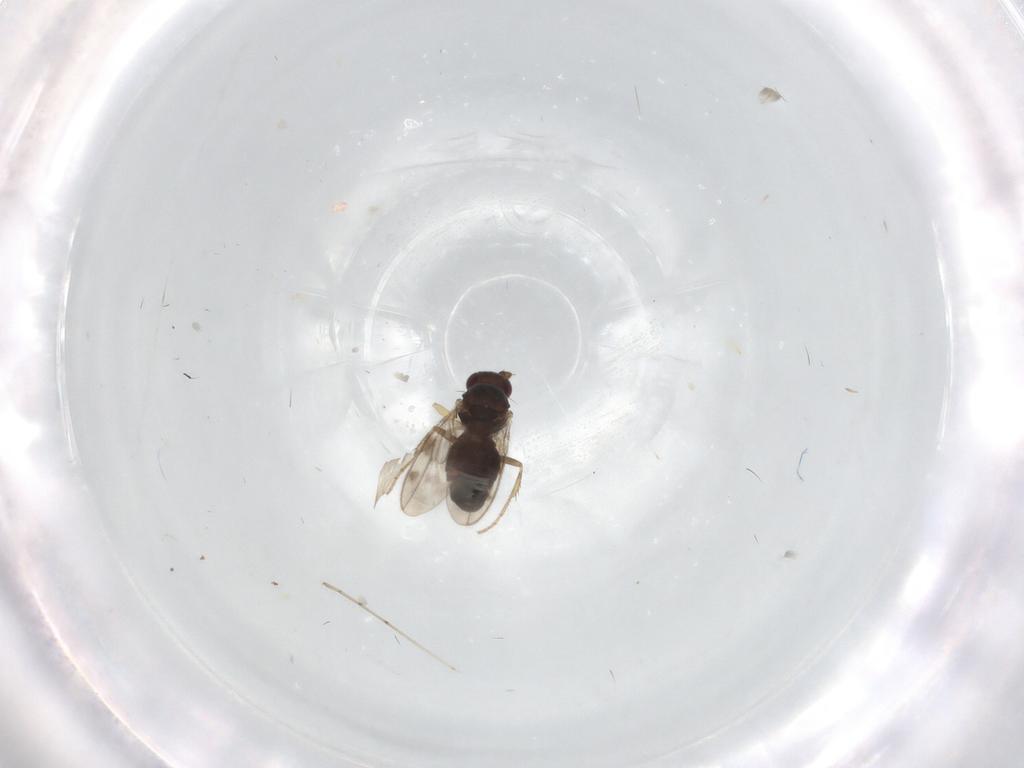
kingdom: Animalia
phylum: Arthropoda
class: Insecta
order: Diptera
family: Sphaeroceridae
